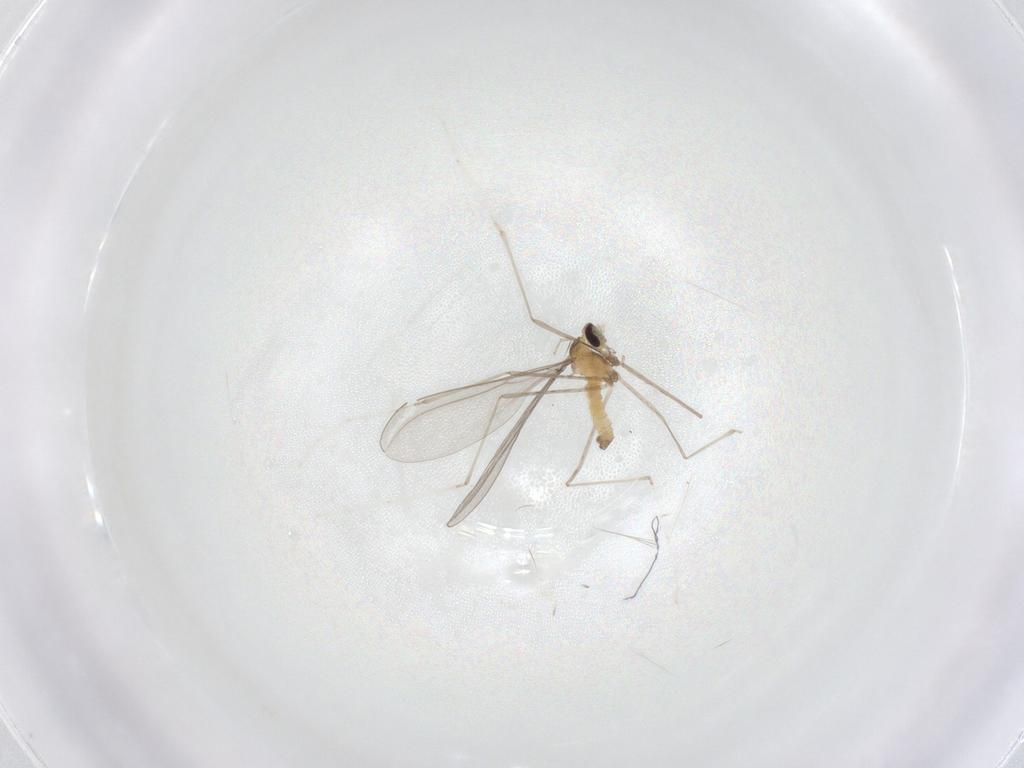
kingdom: Animalia
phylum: Arthropoda
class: Insecta
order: Diptera
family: Cecidomyiidae
